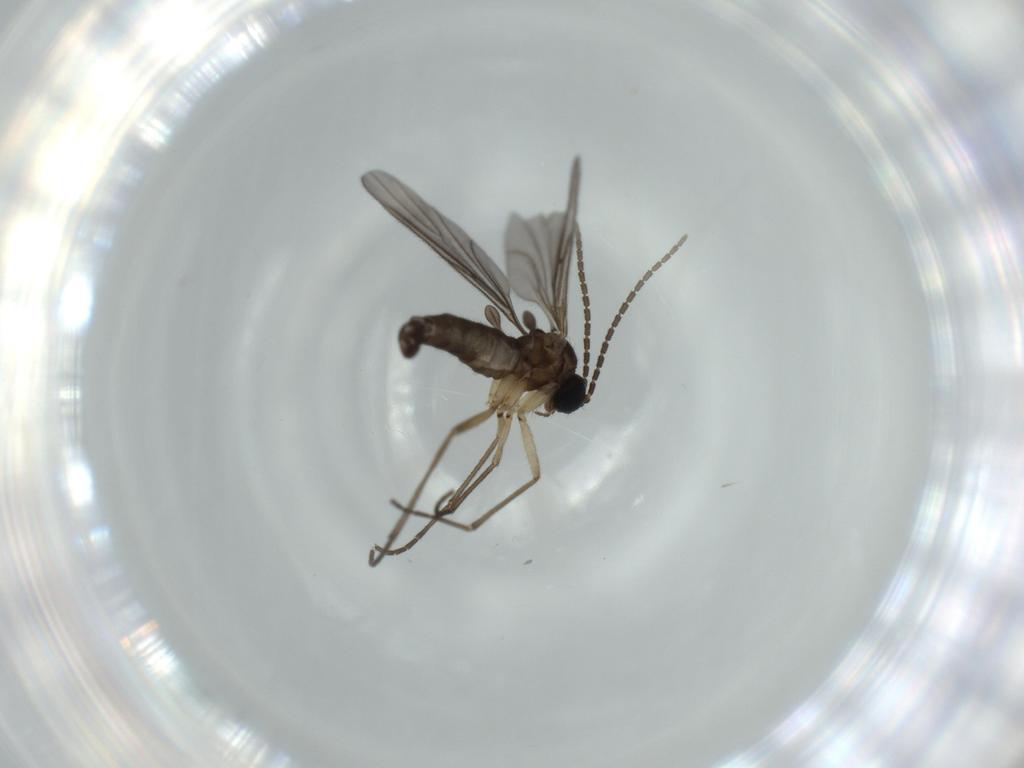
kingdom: Animalia
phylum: Arthropoda
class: Insecta
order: Diptera
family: Sciaridae
